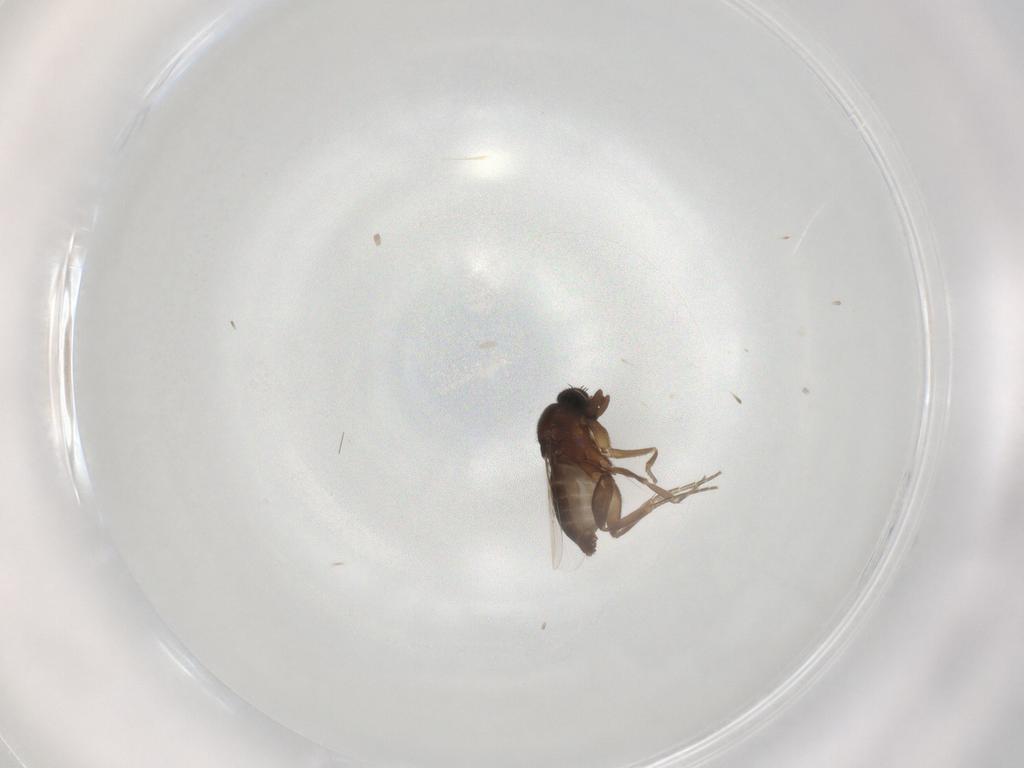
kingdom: Animalia
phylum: Arthropoda
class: Insecta
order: Diptera
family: Phoridae
